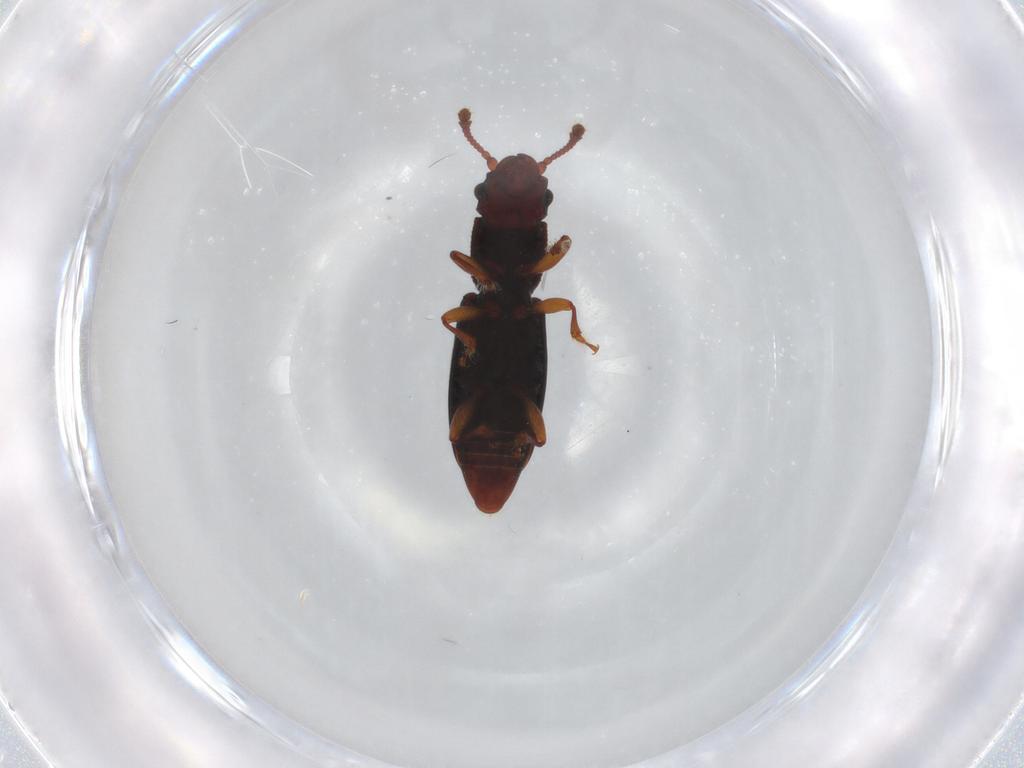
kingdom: Animalia
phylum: Arthropoda
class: Insecta
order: Coleoptera
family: Monotomidae
